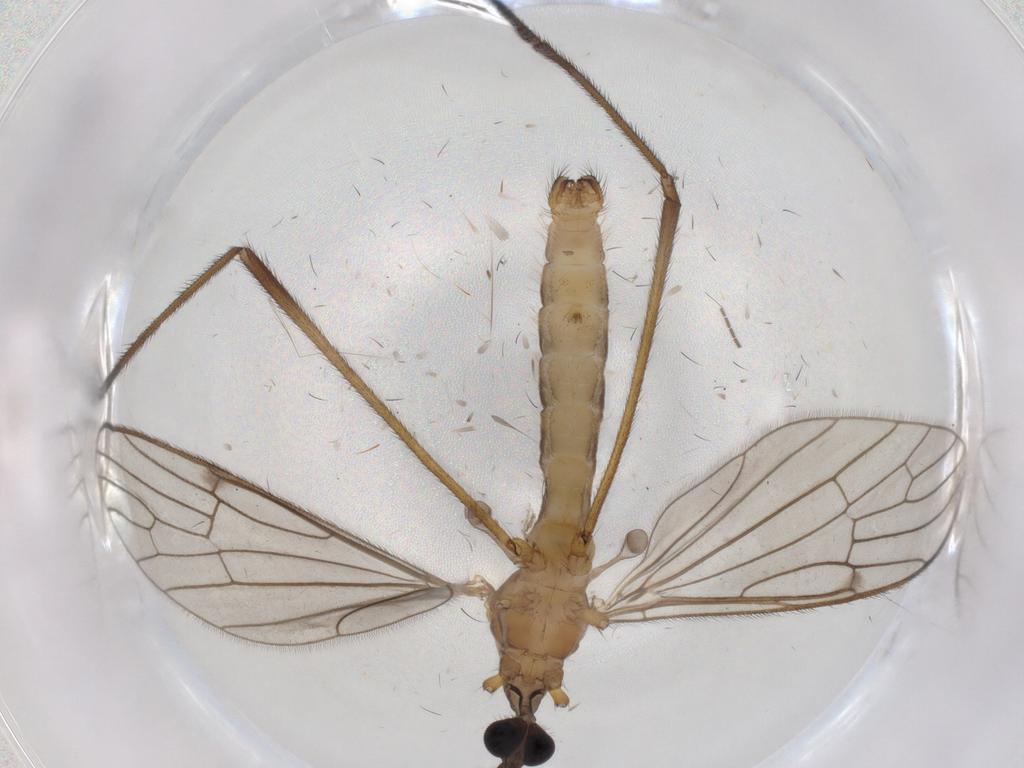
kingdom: Animalia
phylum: Arthropoda
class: Insecta
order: Diptera
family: Limoniidae
